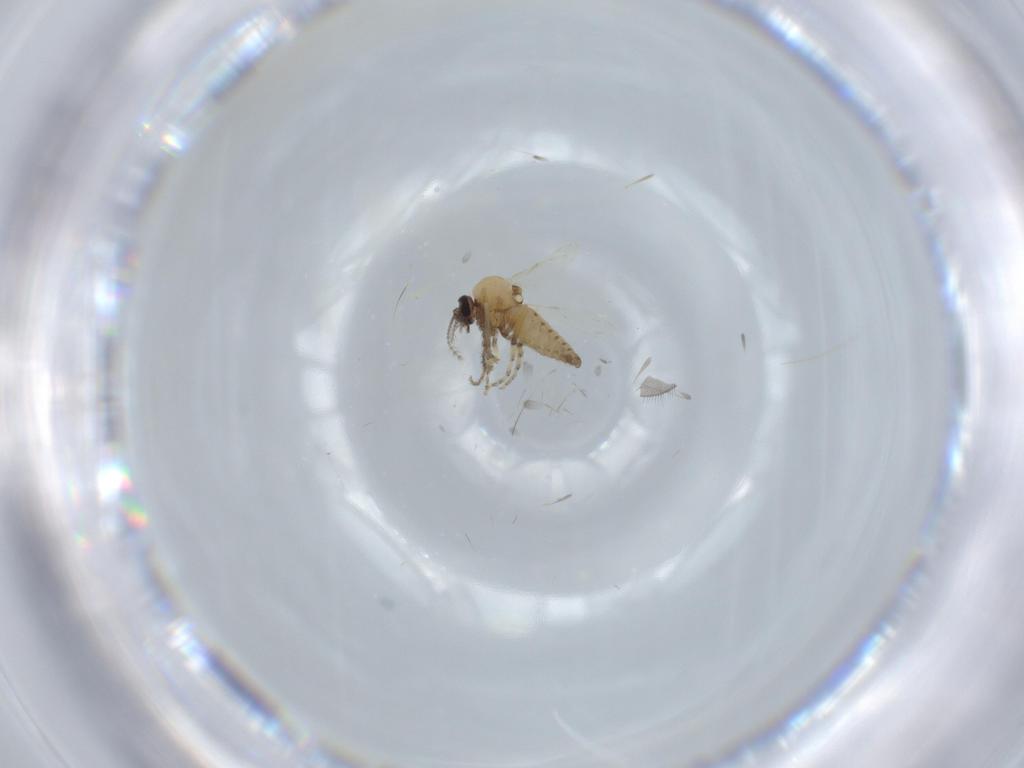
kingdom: Animalia
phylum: Arthropoda
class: Insecta
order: Diptera
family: Ceratopogonidae
